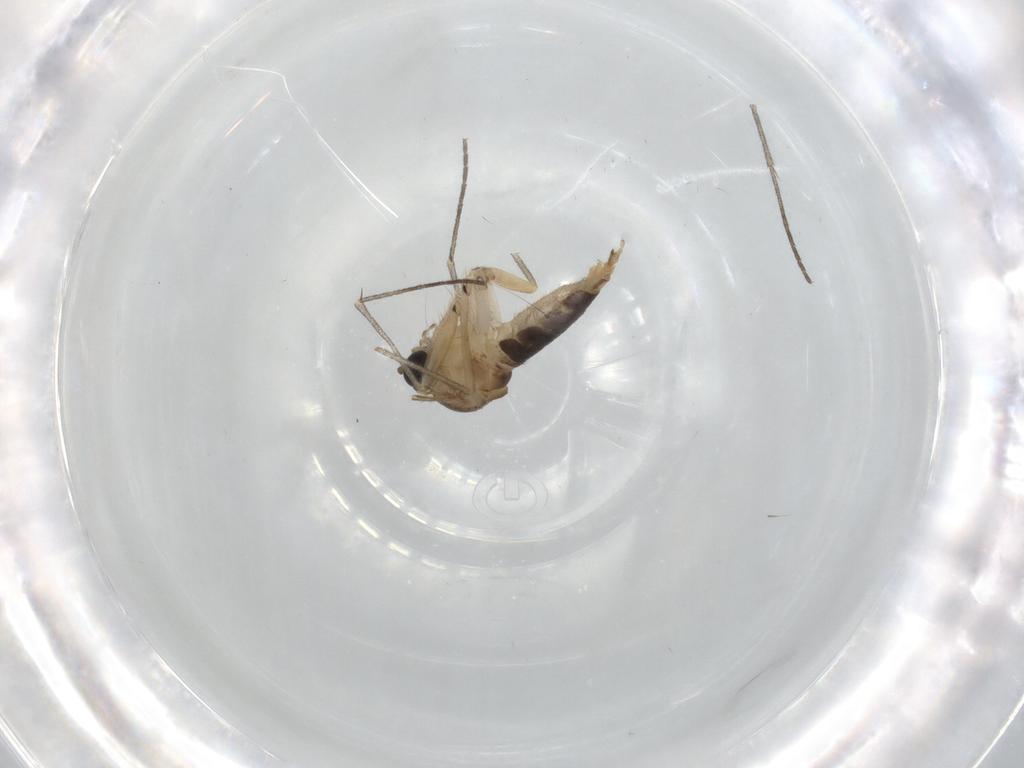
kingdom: Animalia
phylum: Arthropoda
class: Insecta
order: Diptera
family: Sciaridae
